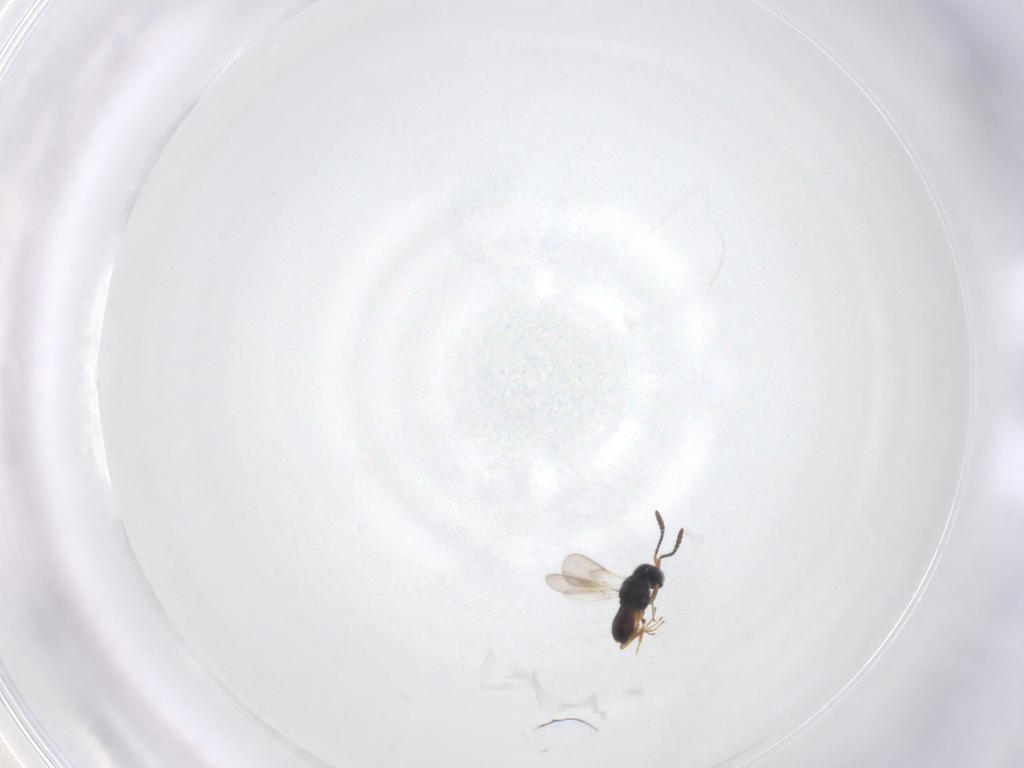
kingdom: Animalia
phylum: Arthropoda
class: Insecta
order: Hymenoptera
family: Scelionidae
